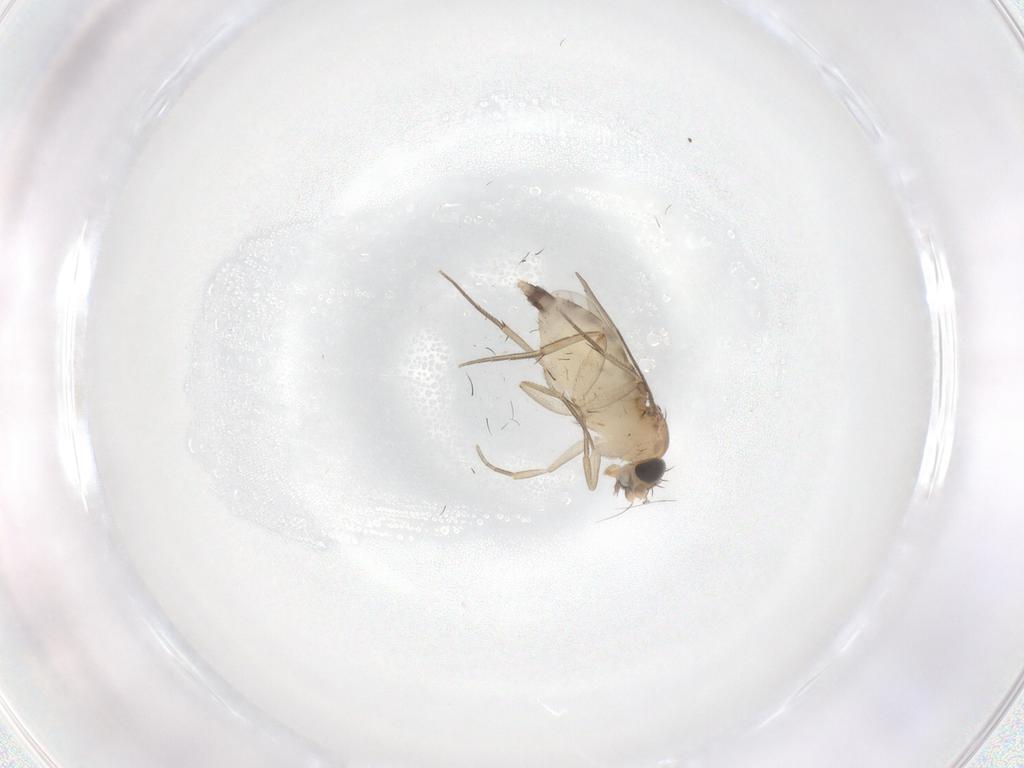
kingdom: Animalia
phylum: Arthropoda
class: Insecta
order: Diptera
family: Phoridae
